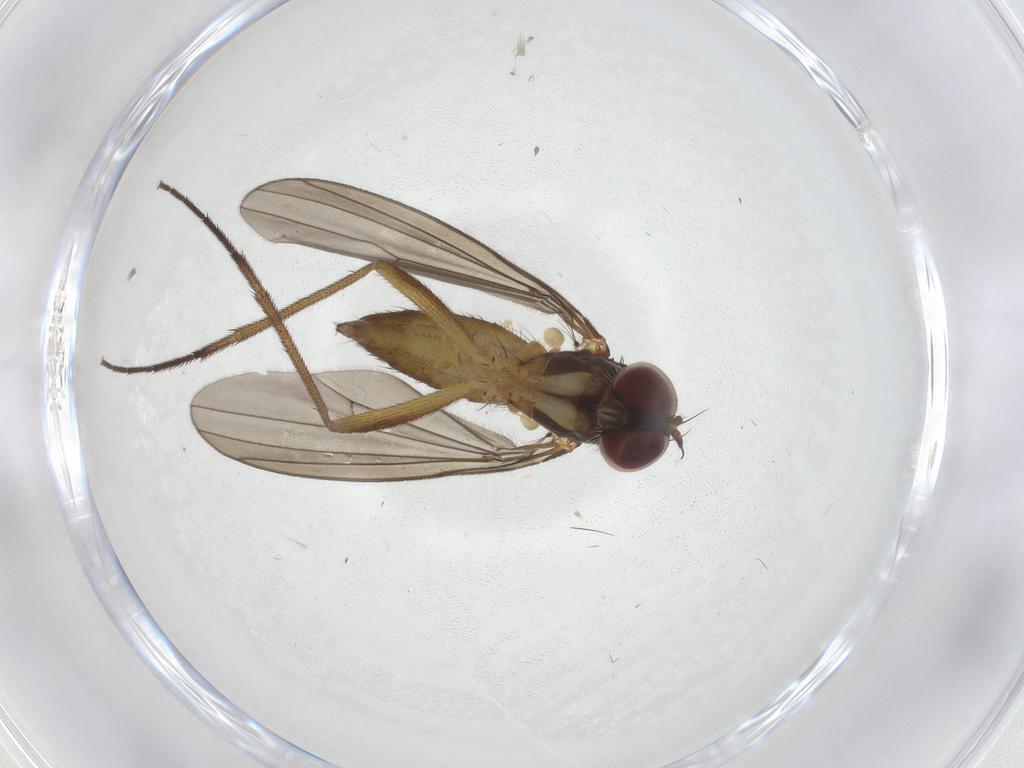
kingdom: Animalia
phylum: Arthropoda
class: Insecta
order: Diptera
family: Dolichopodidae
